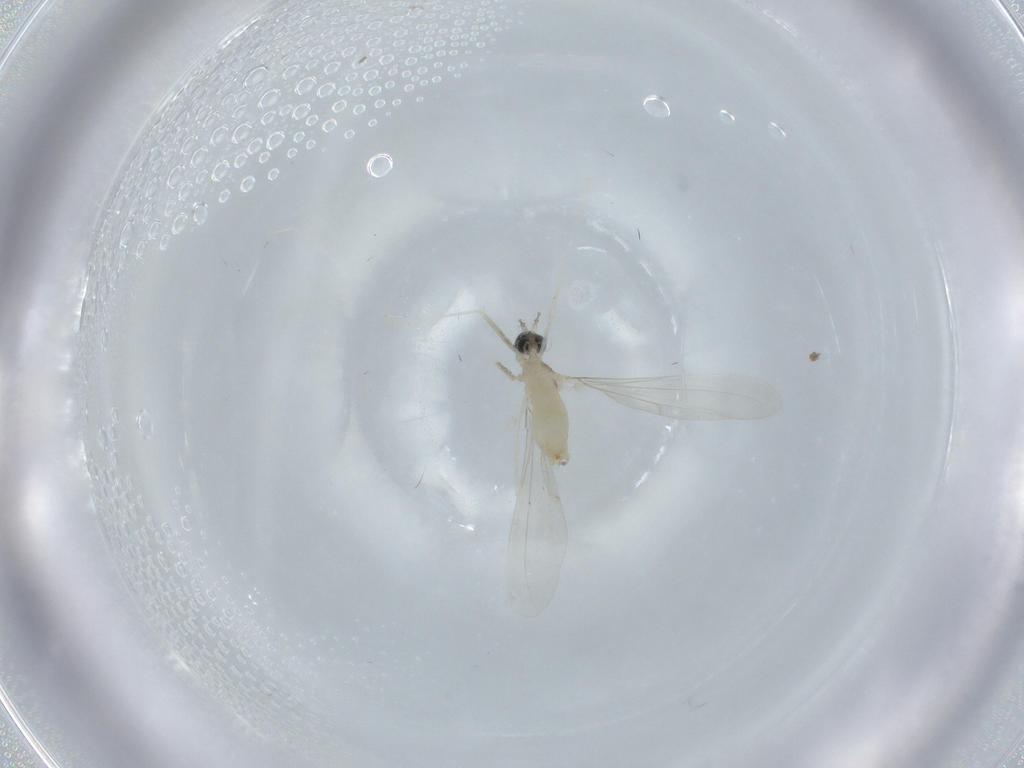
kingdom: Animalia
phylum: Arthropoda
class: Insecta
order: Diptera
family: Cecidomyiidae
